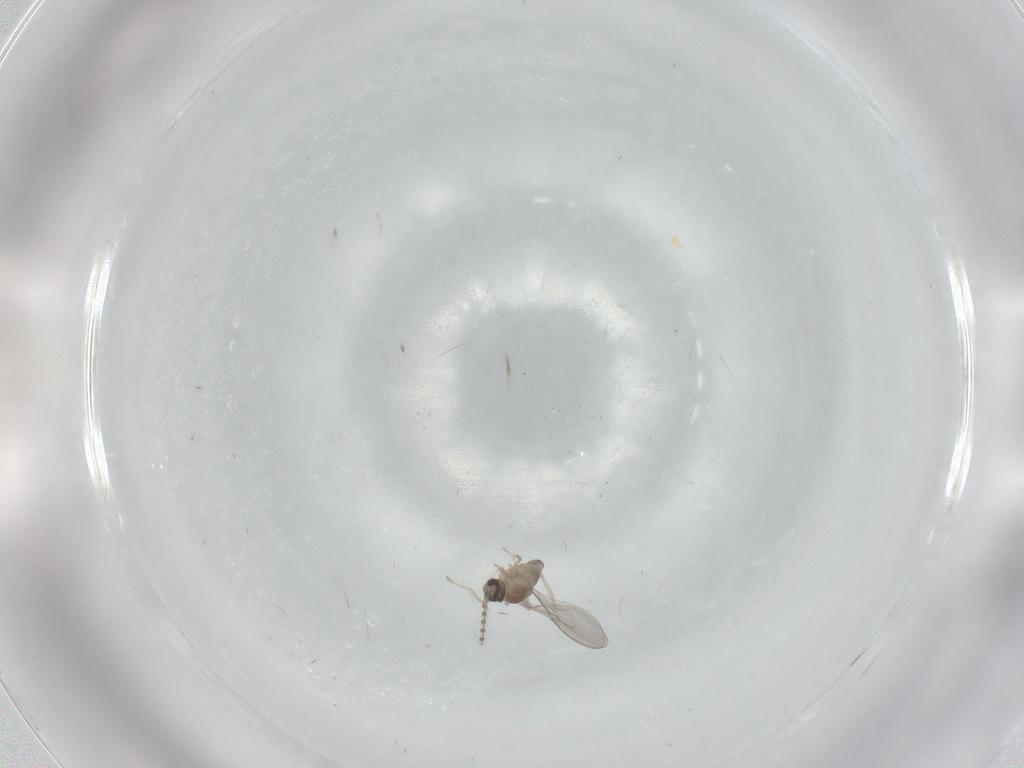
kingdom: Animalia
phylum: Arthropoda
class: Insecta
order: Diptera
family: Cecidomyiidae
